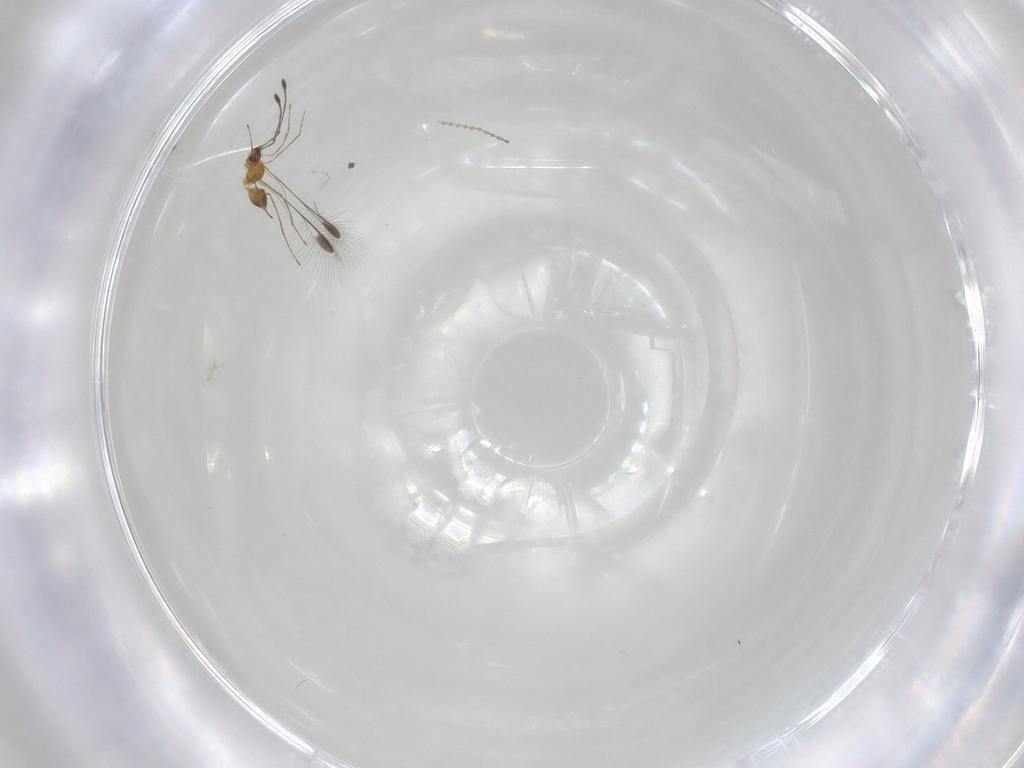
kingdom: Animalia
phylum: Arthropoda
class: Insecta
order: Hymenoptera
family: Mymaridae
